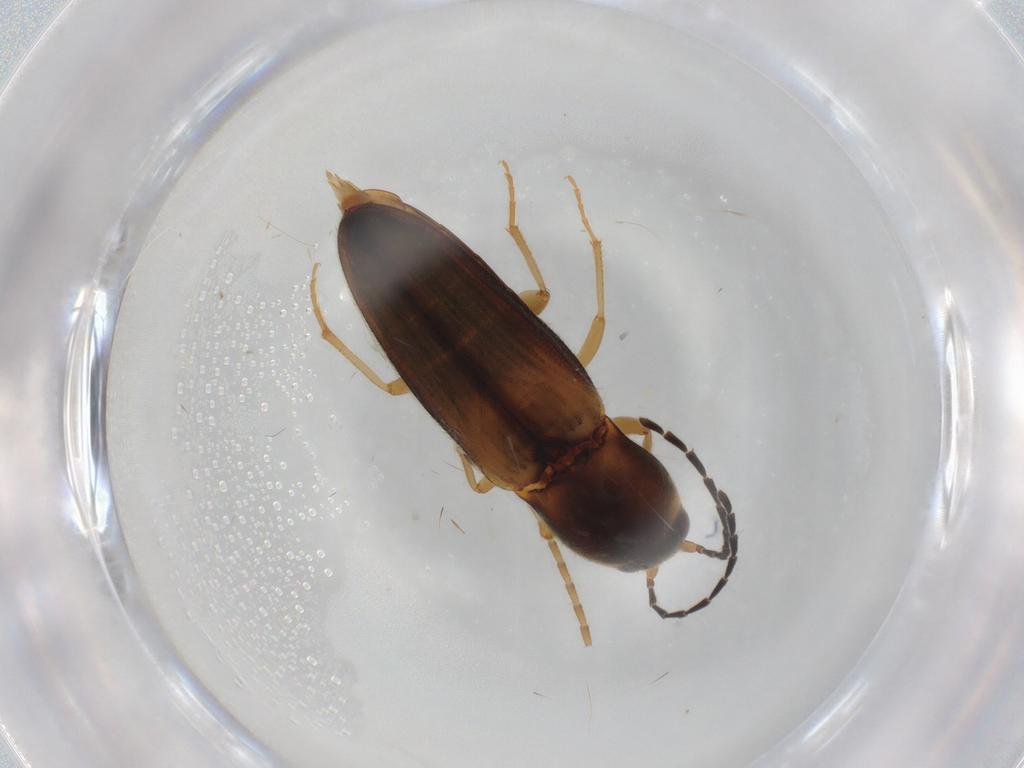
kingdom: Animalia
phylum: Arthropoda
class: Insecta
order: Coleoptera
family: Elateridae
